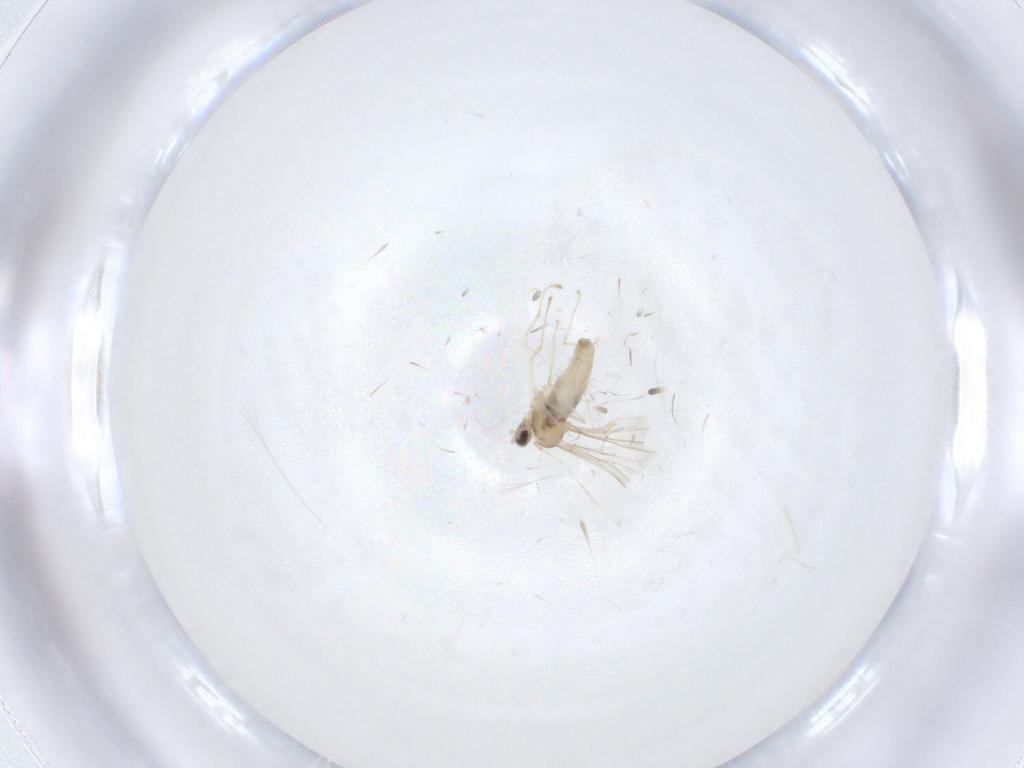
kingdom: Animalia
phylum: Arthropoda
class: Insecta
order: Diptera
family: Cecidomyiidae
